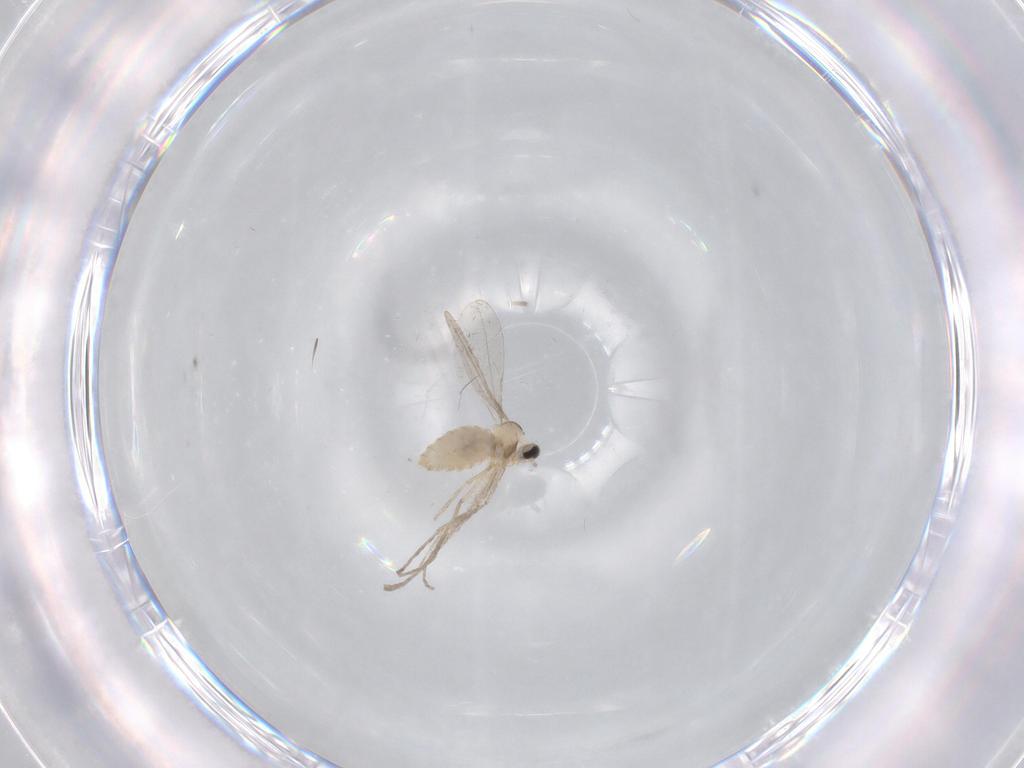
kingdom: Animalia
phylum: Arthropoda
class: Insecta
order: Diptera
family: Cecidomyiidae
